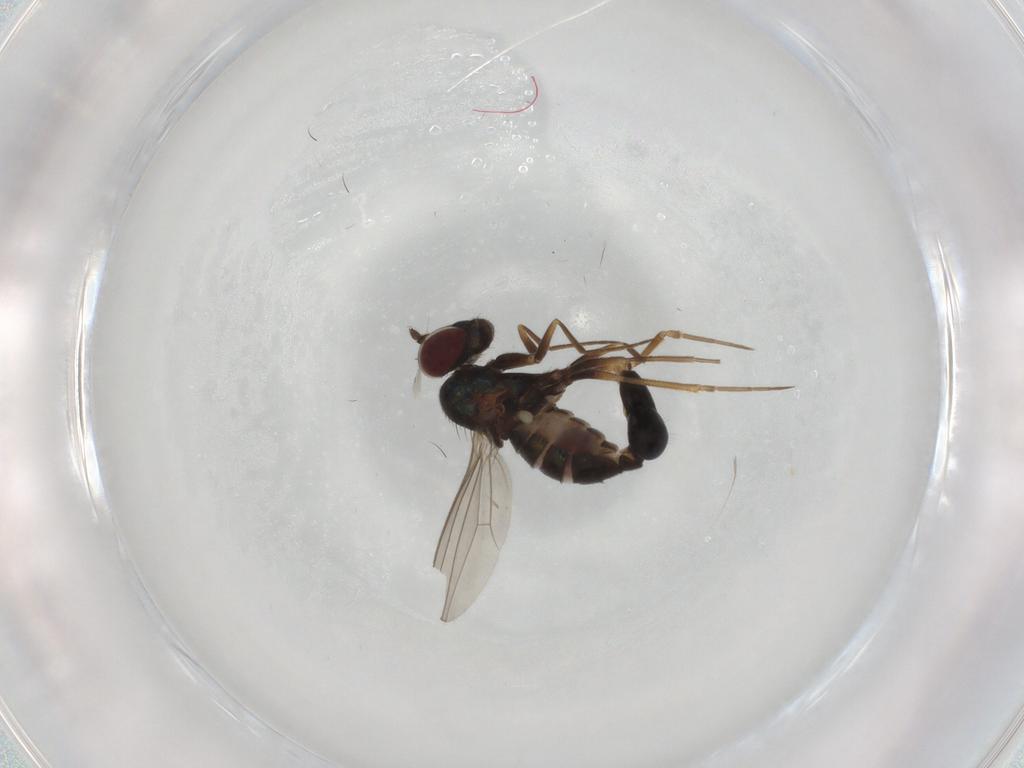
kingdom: Animalia
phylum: Arthropoda
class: Insecta
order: Diptera
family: Dolichopodidae
